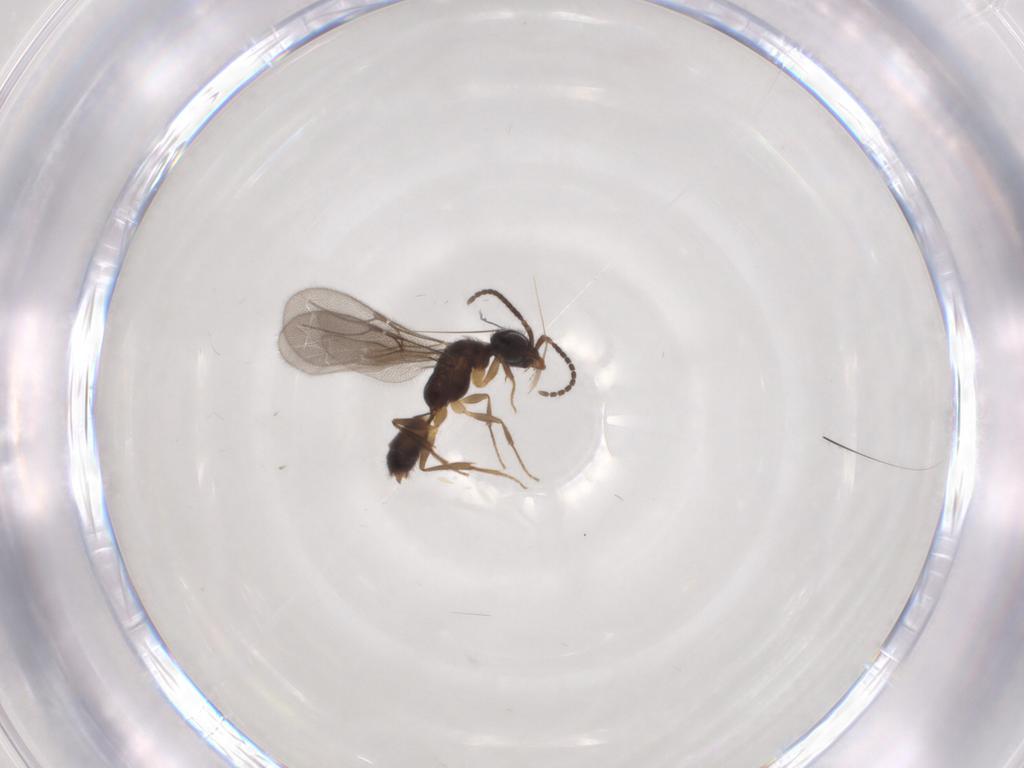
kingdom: Animalia
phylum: Arthropoda
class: Insecta
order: Hymenoptera
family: Bethylidae
